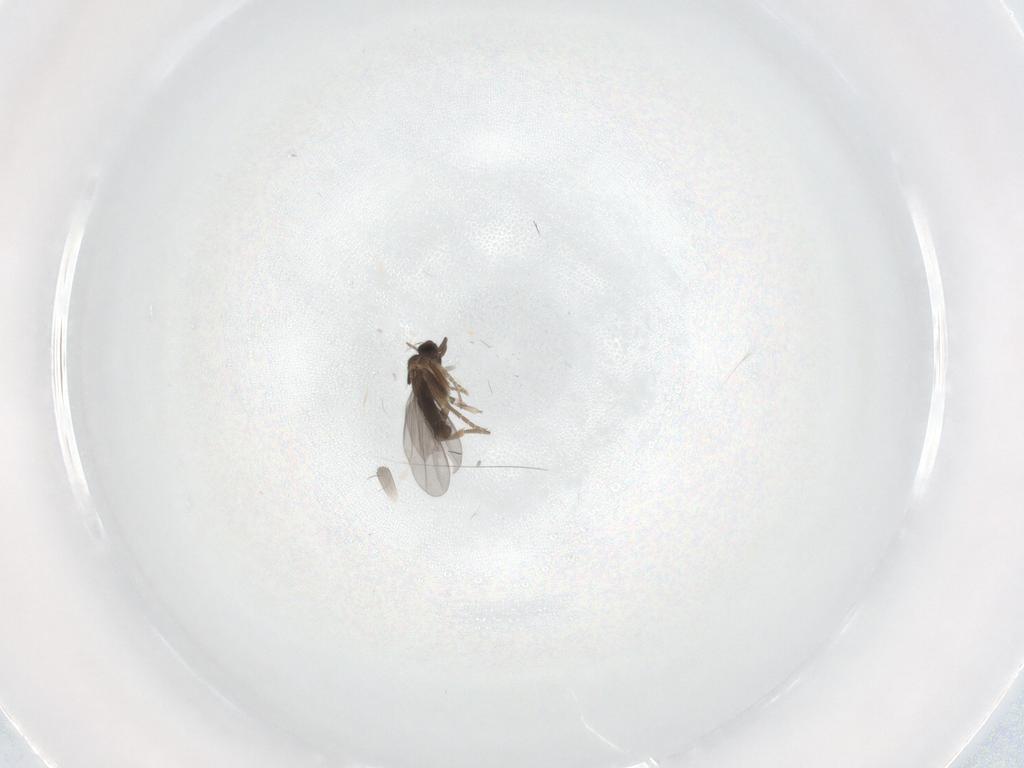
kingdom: Animalia
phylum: Arthropoda
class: Insecta
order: Diptera
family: Chironomidae
